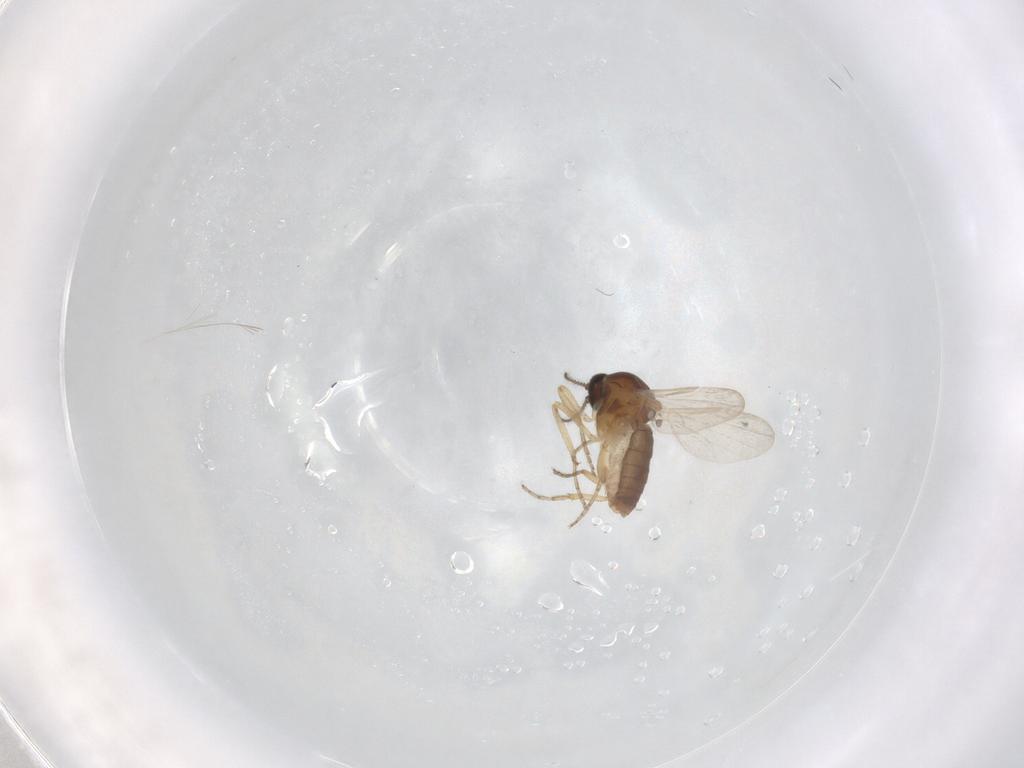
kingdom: Animalia
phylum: Arthropoda
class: Insecta
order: Diptera
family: Ceratopogonidae
